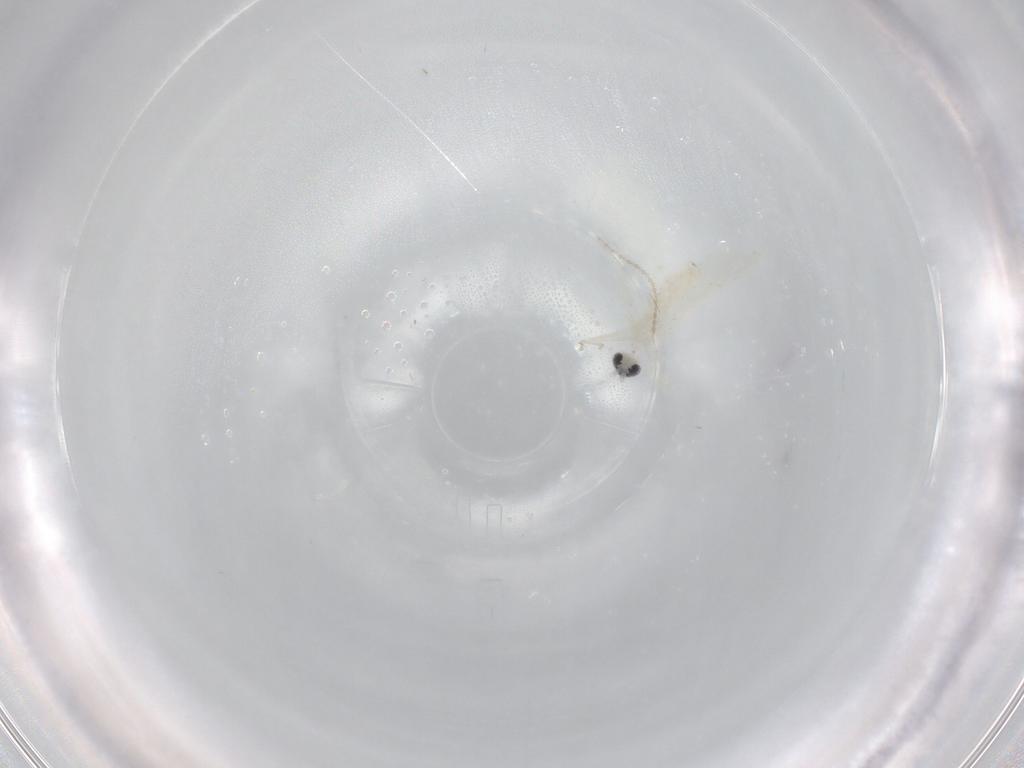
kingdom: Animalia
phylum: Arthropoda
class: Insecta
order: Diptera
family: Cecidomyiidae
